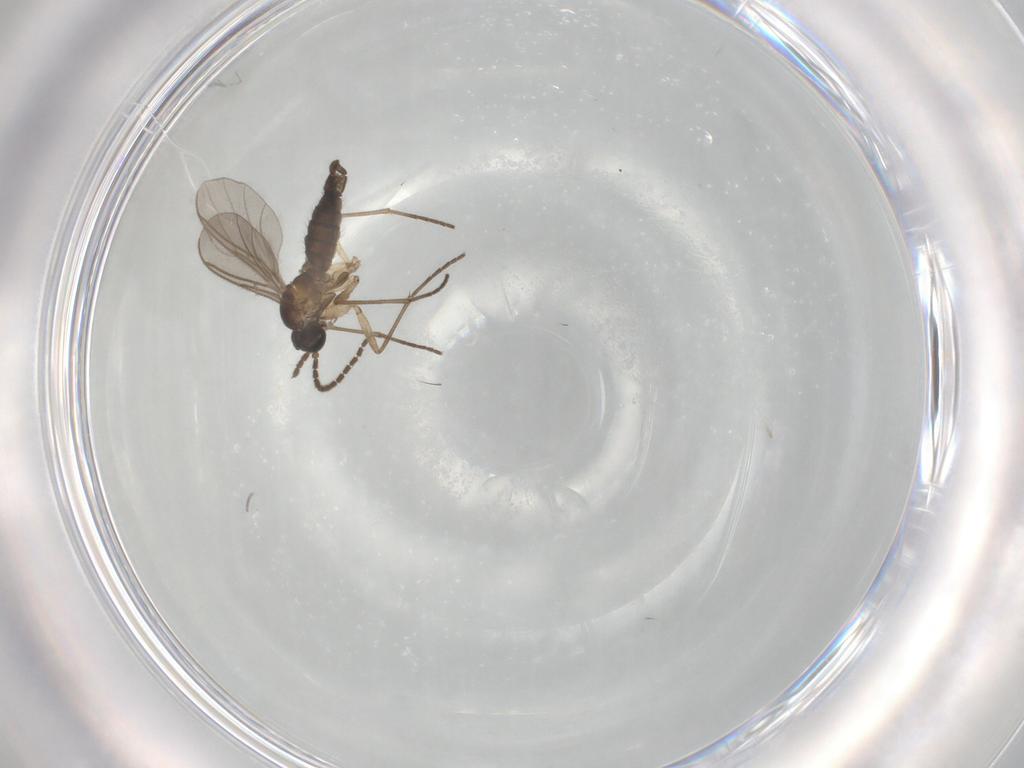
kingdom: Animalia
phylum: Arthropoda
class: Insecta
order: Diptera
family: Sciaridae
